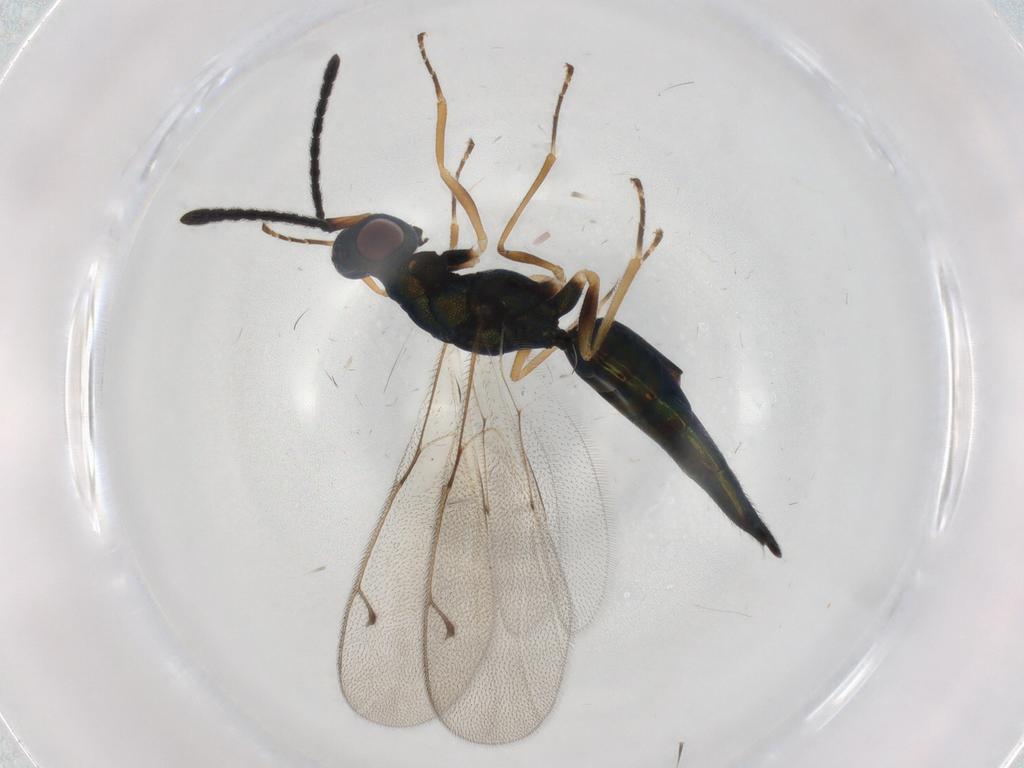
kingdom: Animalia
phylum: Arthropoda
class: Insecta
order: Hymenoptera
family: Pteromalidae
